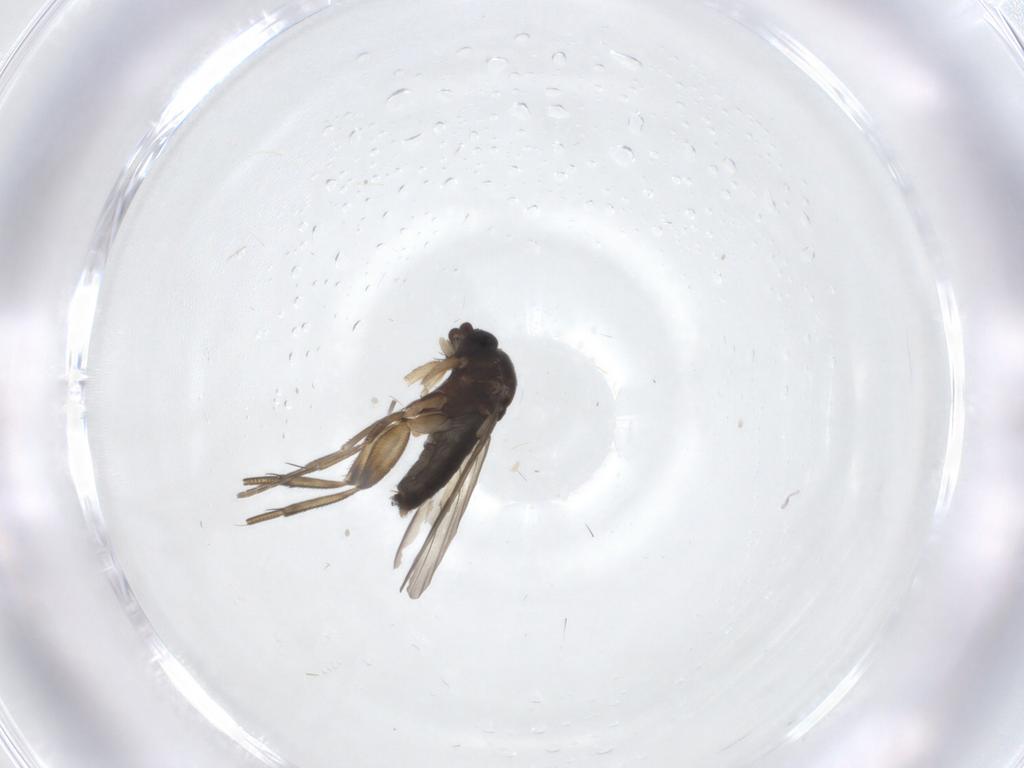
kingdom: Animalia
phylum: Arthropoda
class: Insecta
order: Diptera
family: Phoridae
